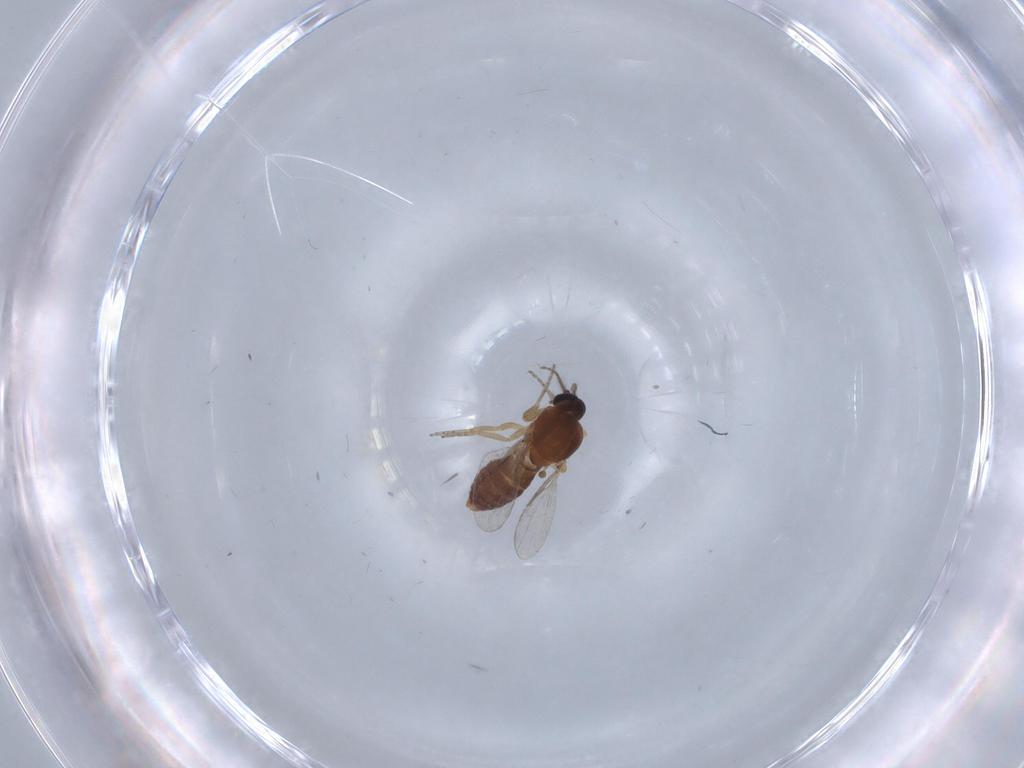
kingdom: Animalia
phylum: Arthropoda
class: Insecta
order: Diptera
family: Ceratopogonidae
